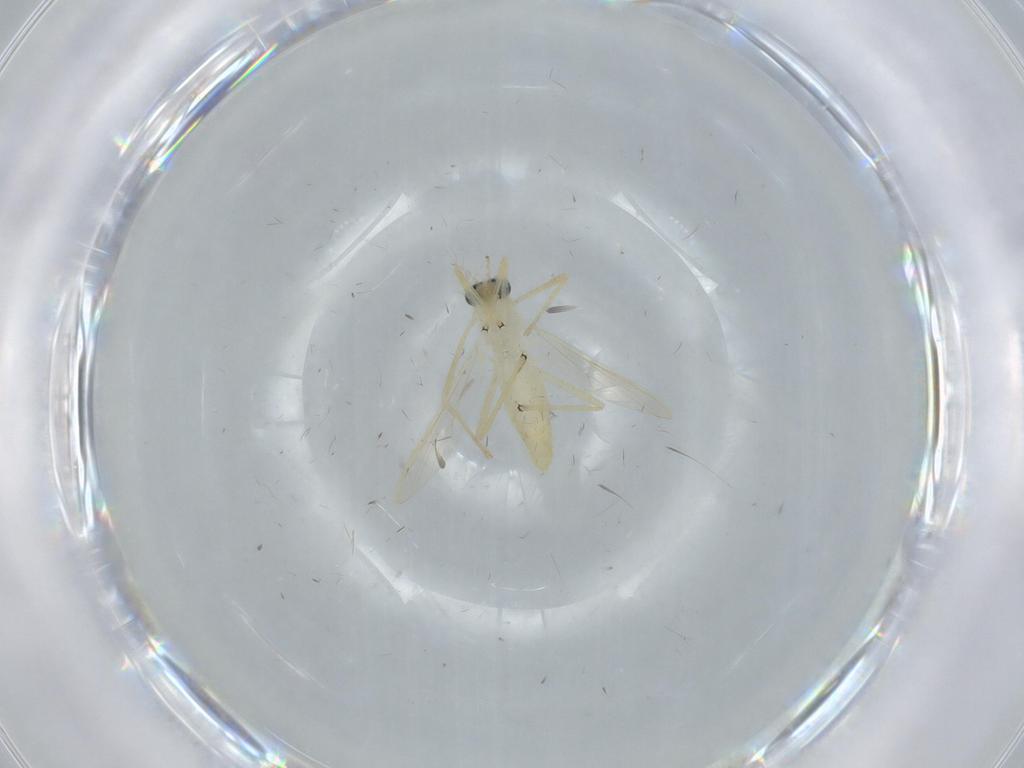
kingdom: Animalia
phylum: Arthropoda
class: Insecta
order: Diptera
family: Chironomidae
